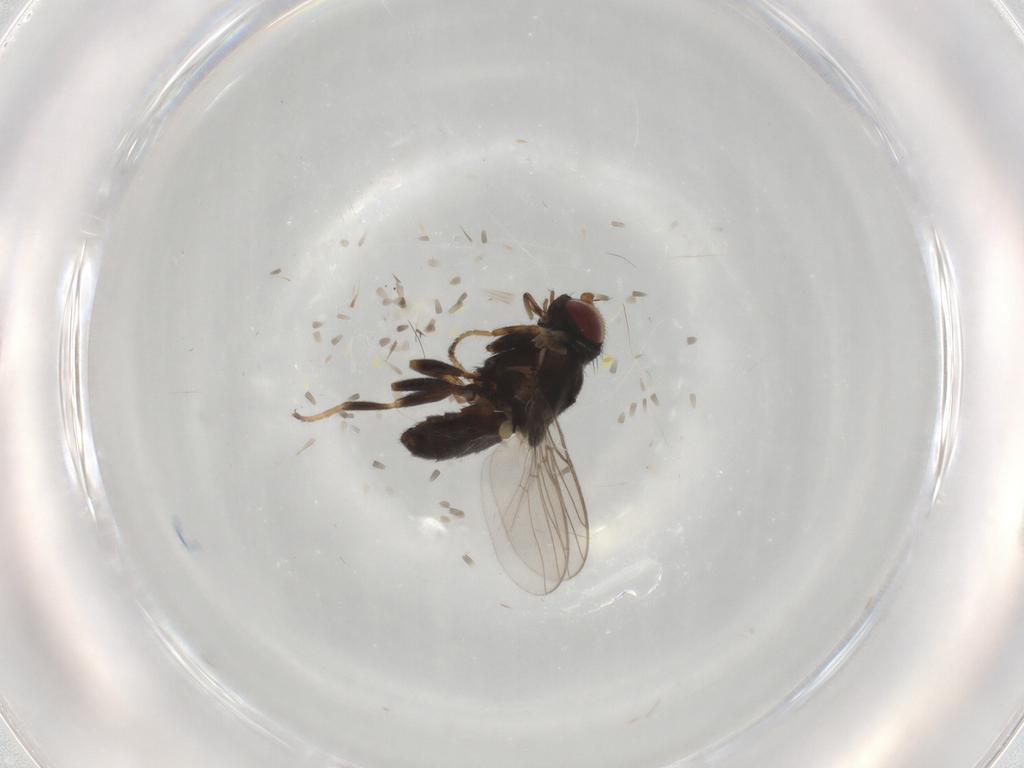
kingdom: Animalia
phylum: Arthropoda
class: Insecta
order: Diptera
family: Chloropidae
